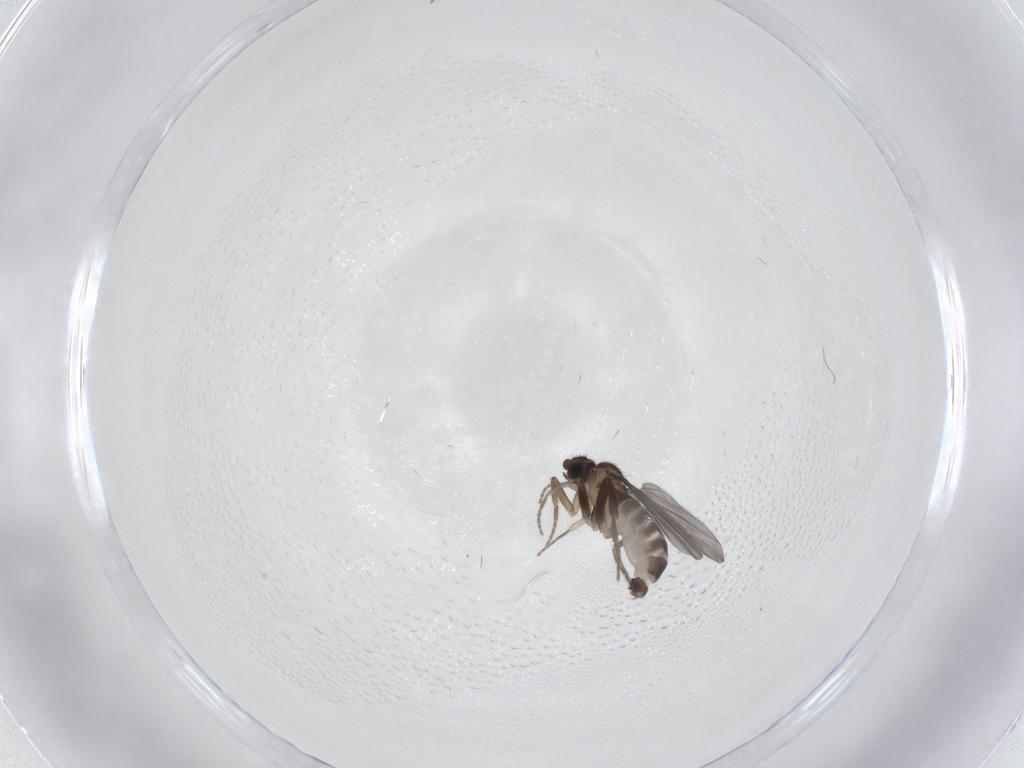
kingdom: Animalia
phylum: Arthropoda
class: Insecta
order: Diptera
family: Phoridae
